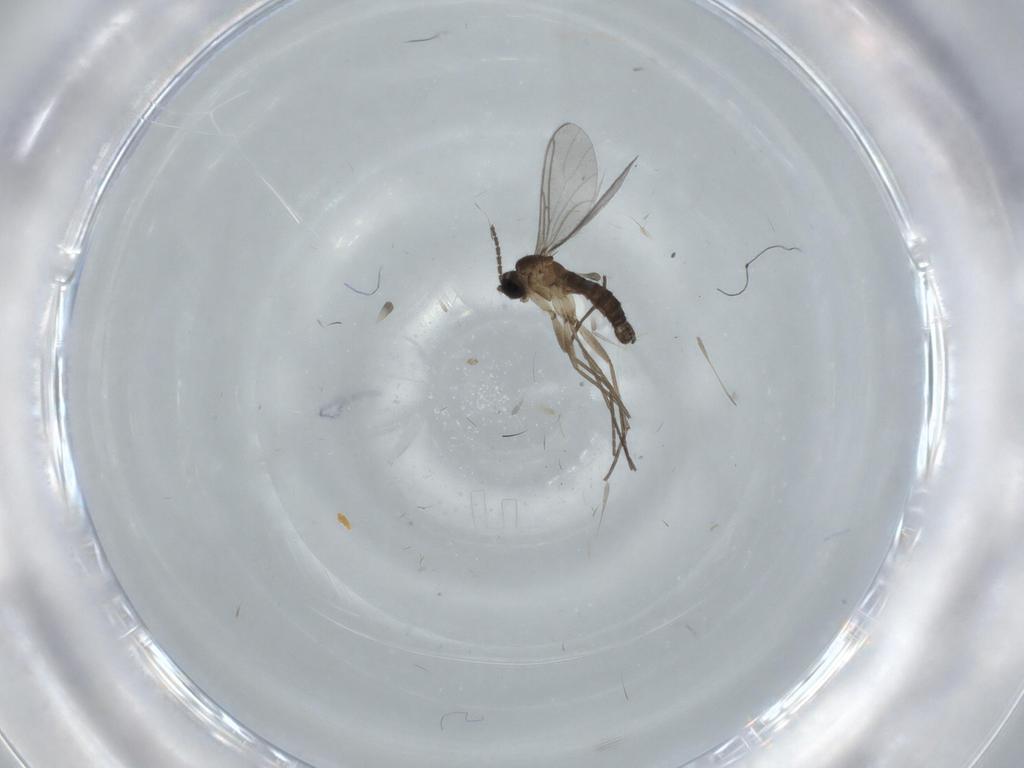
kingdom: Animalia
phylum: Arthropoda
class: Insecta
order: Diptera
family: Sciaridae
